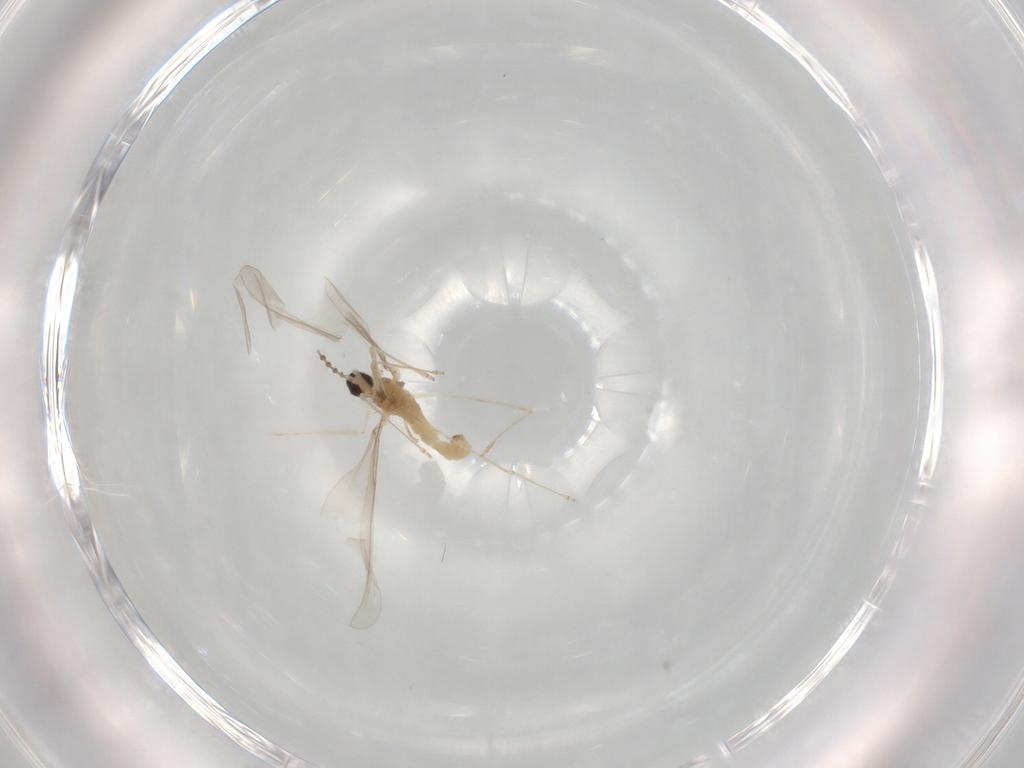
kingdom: Animalia
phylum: Arthropoda
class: Insecta
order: Diptera
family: Cecidomyiidae
